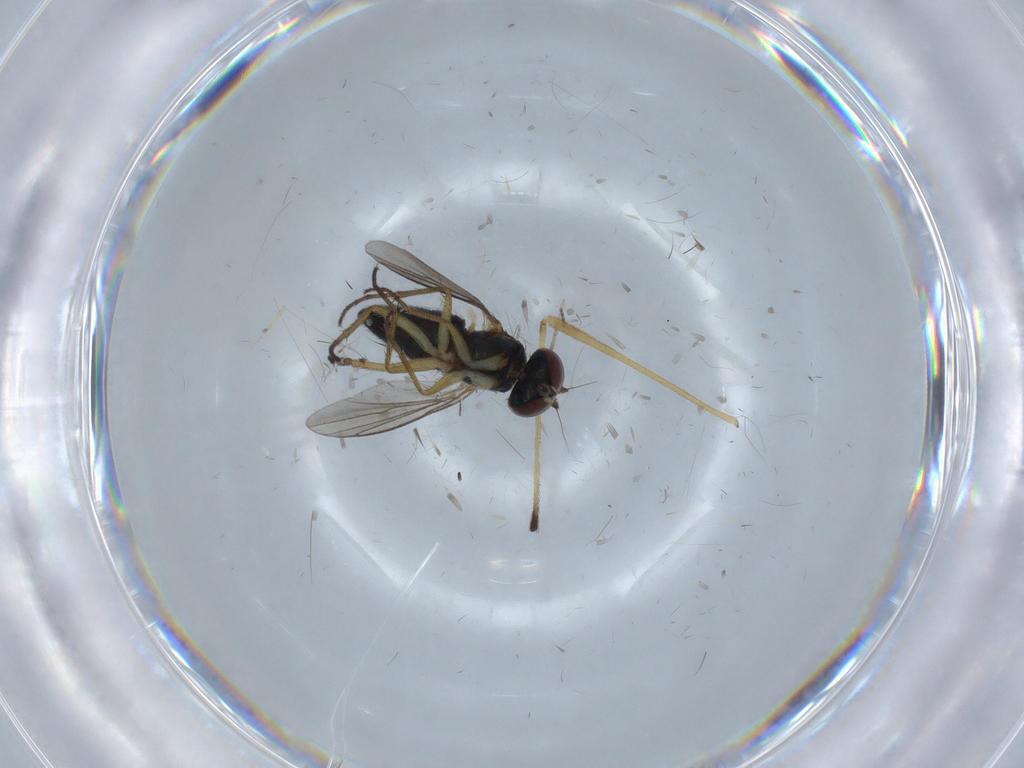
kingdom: Animalia
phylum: Arthropoda
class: Insecta
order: Diptera
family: Limoniidae
